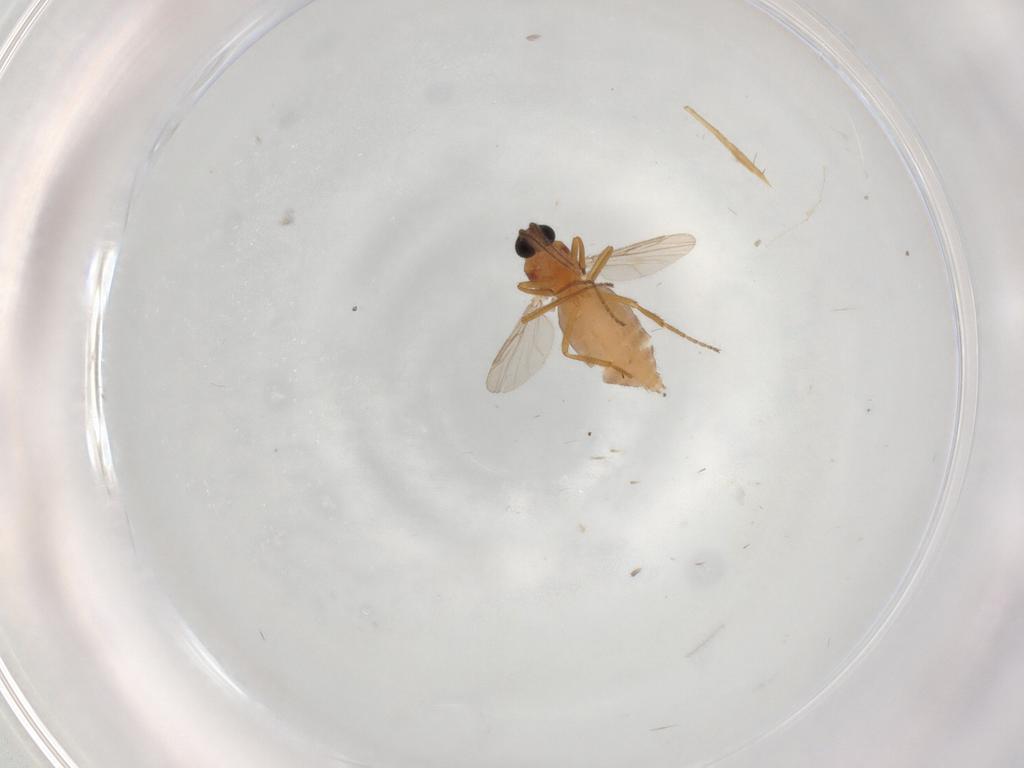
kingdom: Animalia
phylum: Arthropoda
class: Insecta
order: Diptera
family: Ceratopogonidae
